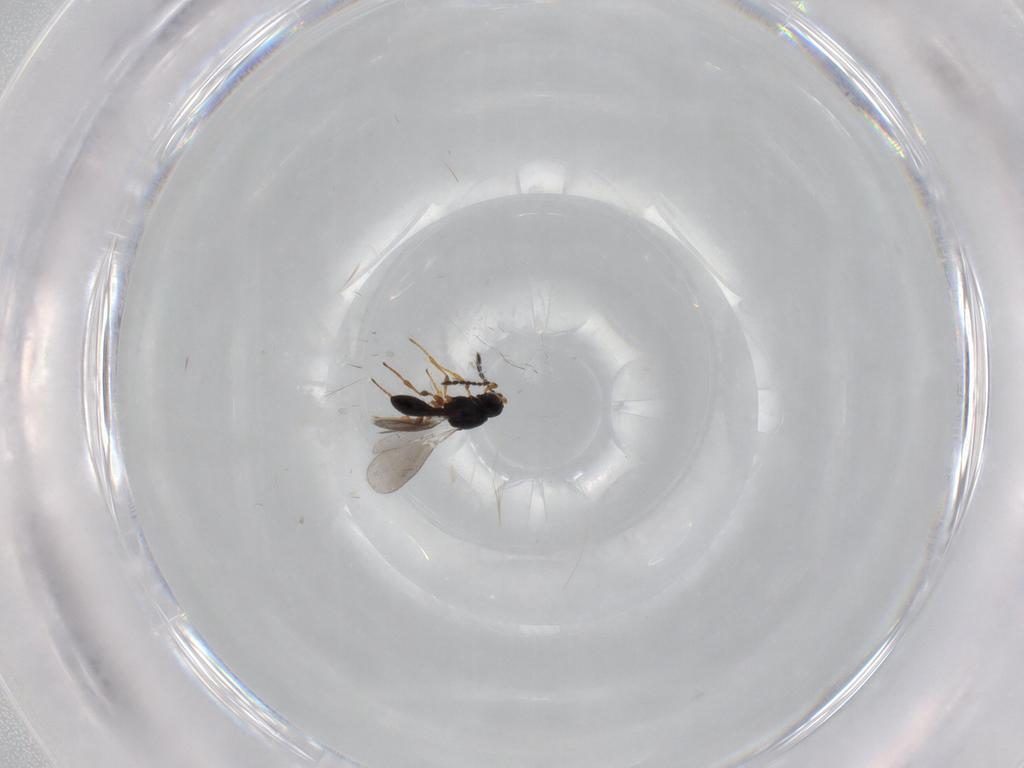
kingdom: Animalia
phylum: Arthropoda
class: Insecta
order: Hymenoptera
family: Platygastridae
